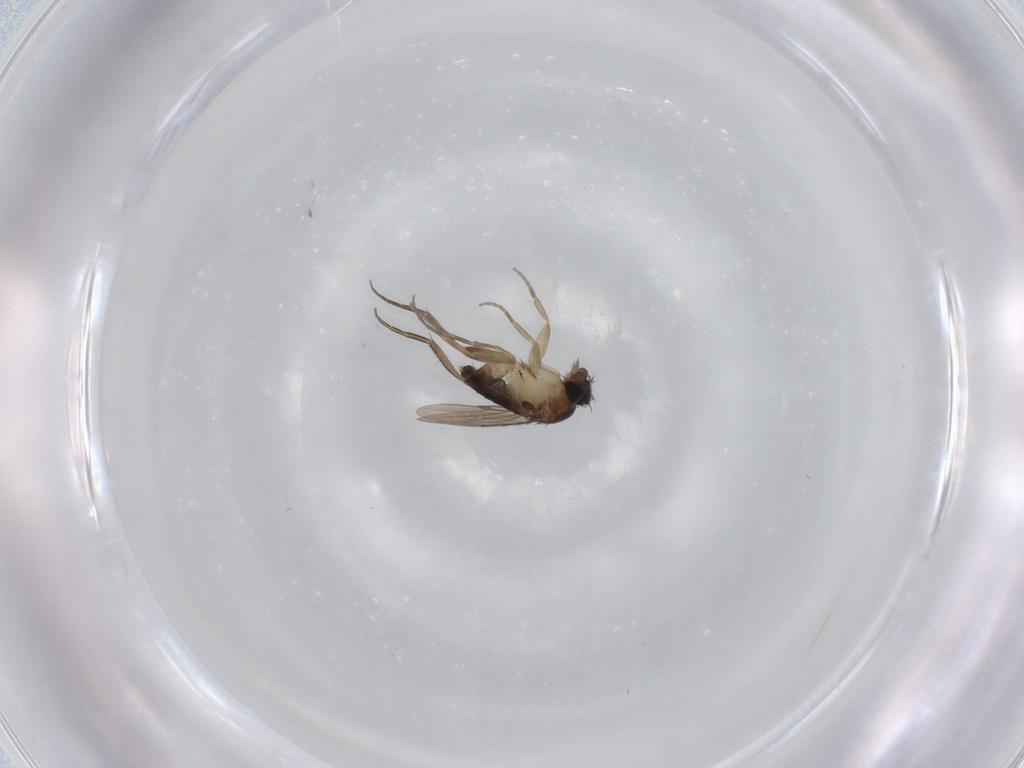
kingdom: Animalia
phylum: Arthropoda
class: Insecta
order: Diptera
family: Phoridae
